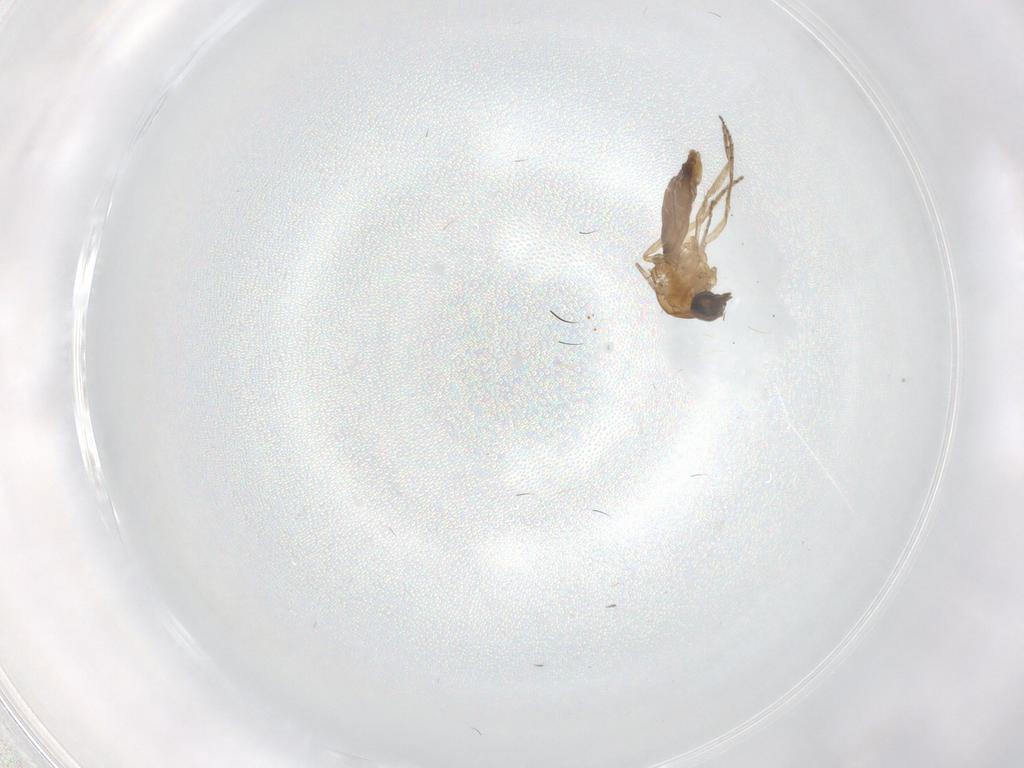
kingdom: Animalia
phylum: Arthropoda
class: Insecta
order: Diptera
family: Ceratopogonidae
